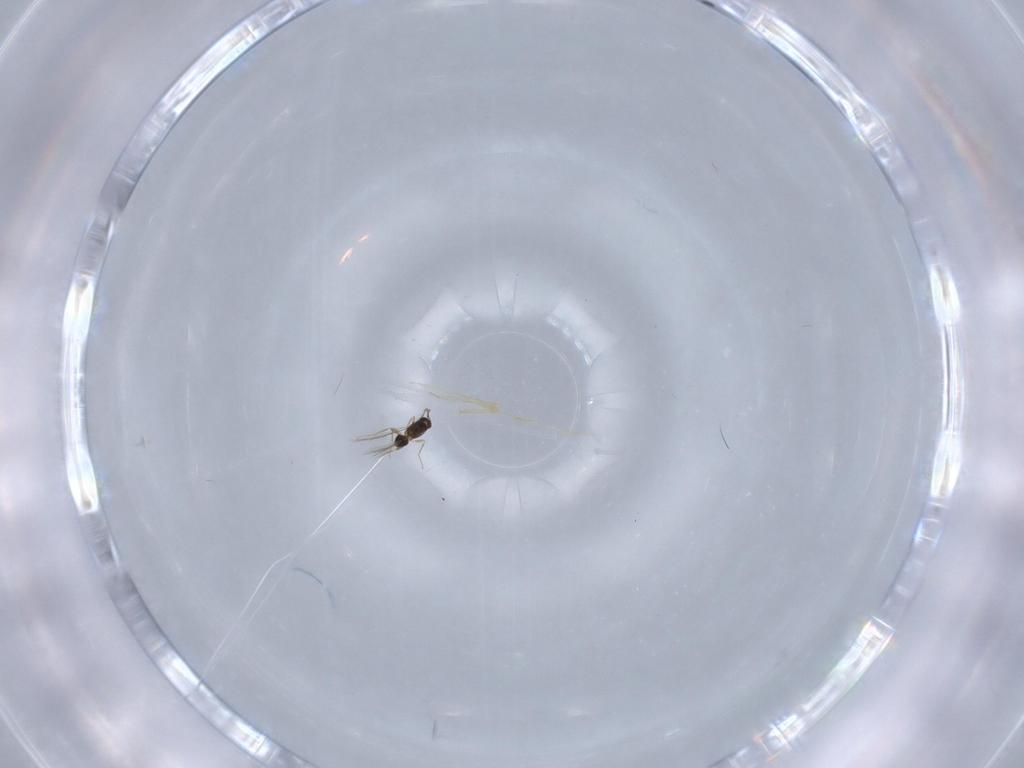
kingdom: Animalia
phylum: Arthropoda
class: Insecta
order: Hymenoptera
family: Mymaridae
